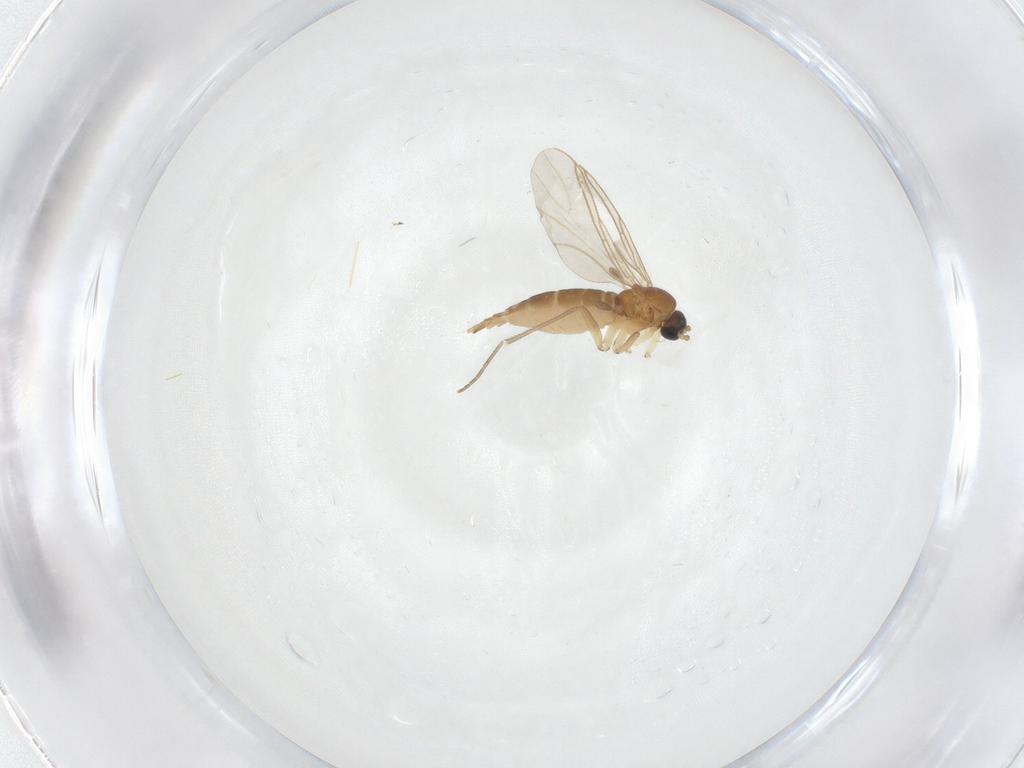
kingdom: Animalia
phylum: Arthropoda
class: Insecta
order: Diptera
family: Sciaridae
